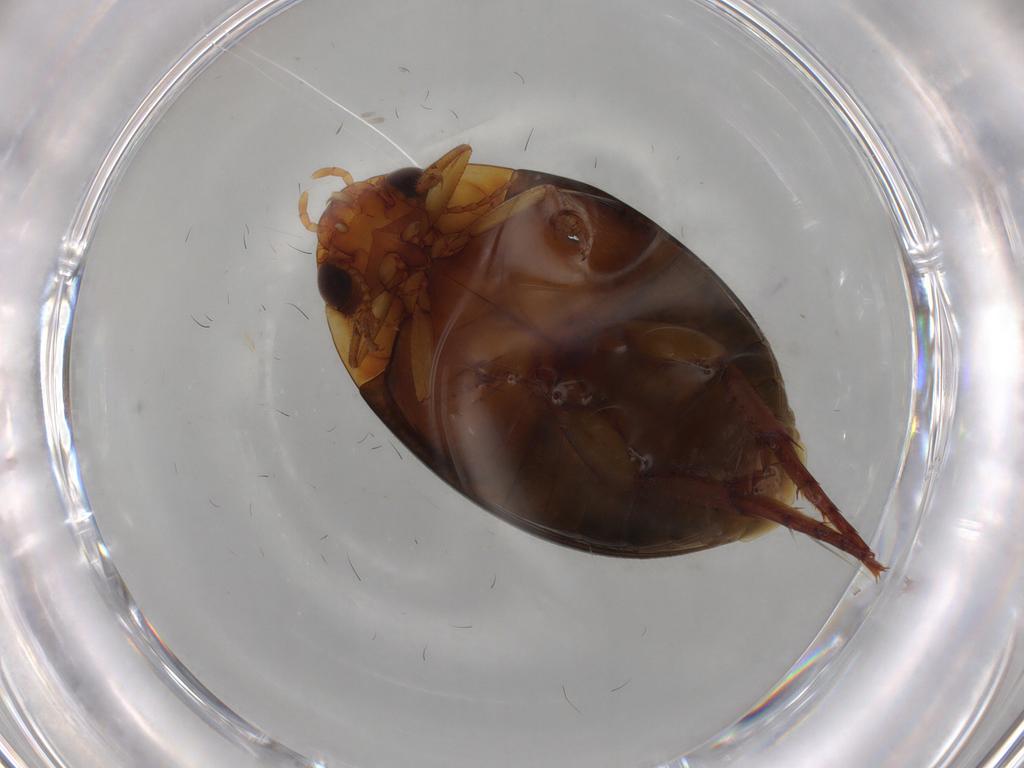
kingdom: Animalia
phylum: Arthropoda
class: Insecta
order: Coleoptera
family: Dytiscidae
